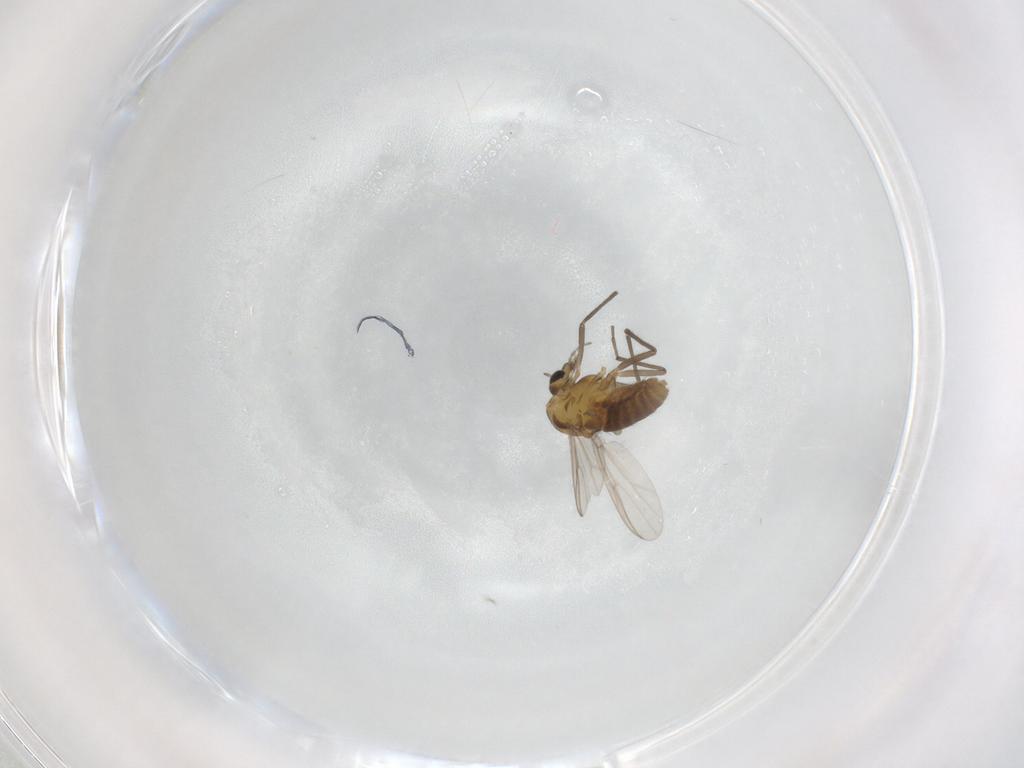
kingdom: Animalia
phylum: Arthropoda
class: Insecta
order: Diptera
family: Chironomidae
